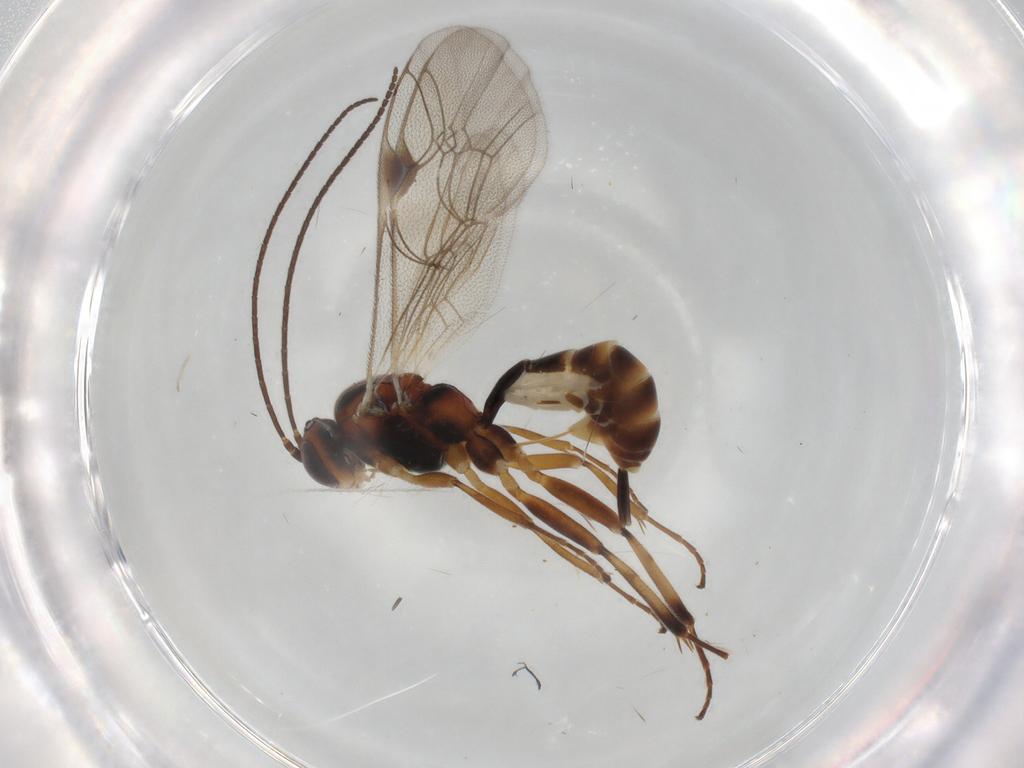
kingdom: Animalia
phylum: Arthropoda
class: Insecta
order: Hymenoptera
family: Ichneumonidae
